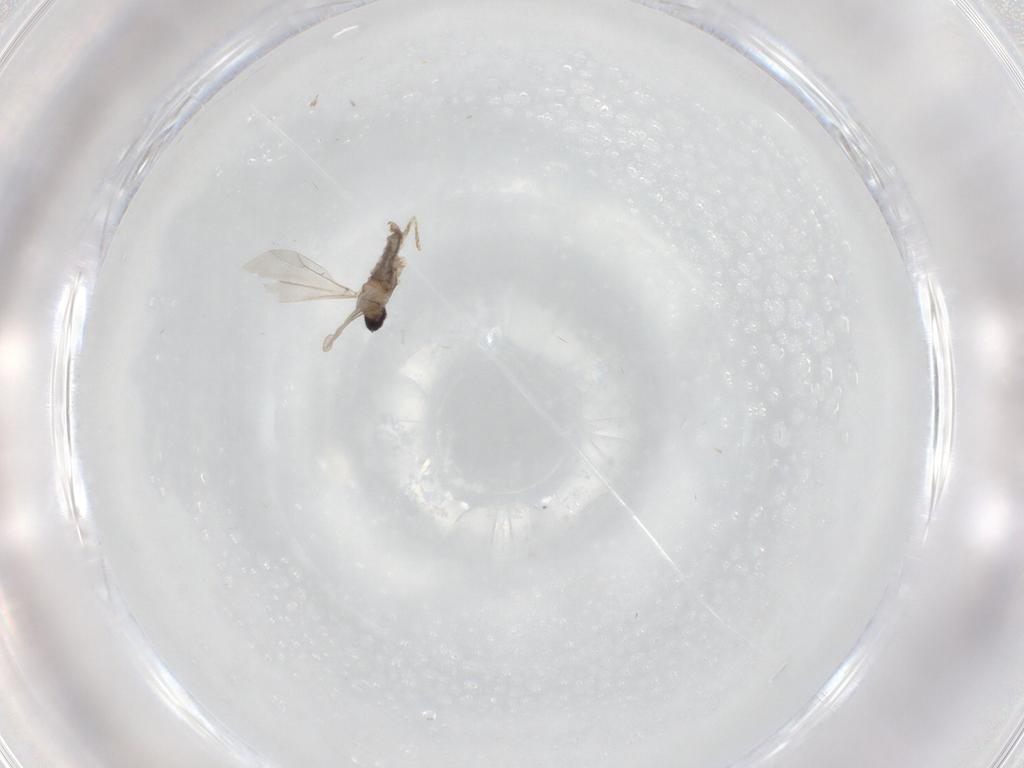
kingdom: Animalia
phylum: Arthropoda
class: Insecta
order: Diptera
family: Cecidomyiidae
